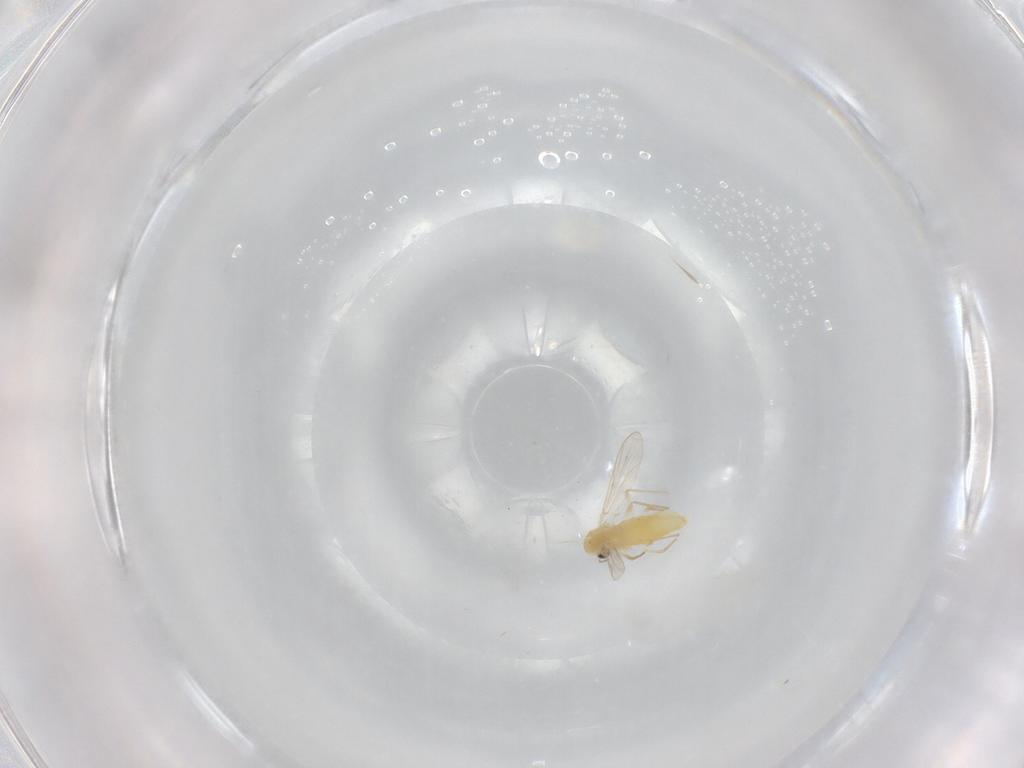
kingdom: Animalia
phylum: Arthropoda
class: Insecta
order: Diptera
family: Chironomidae
